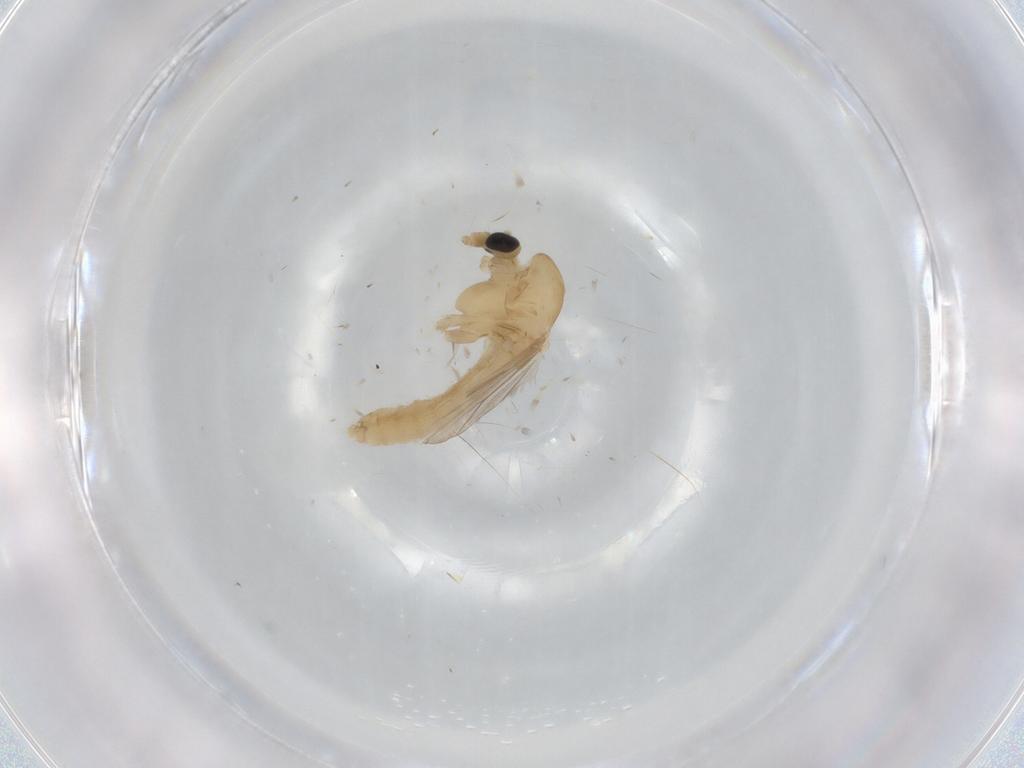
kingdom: Animalia
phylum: Arthropoda
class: Insecta
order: Diptera
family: Chironomidae
